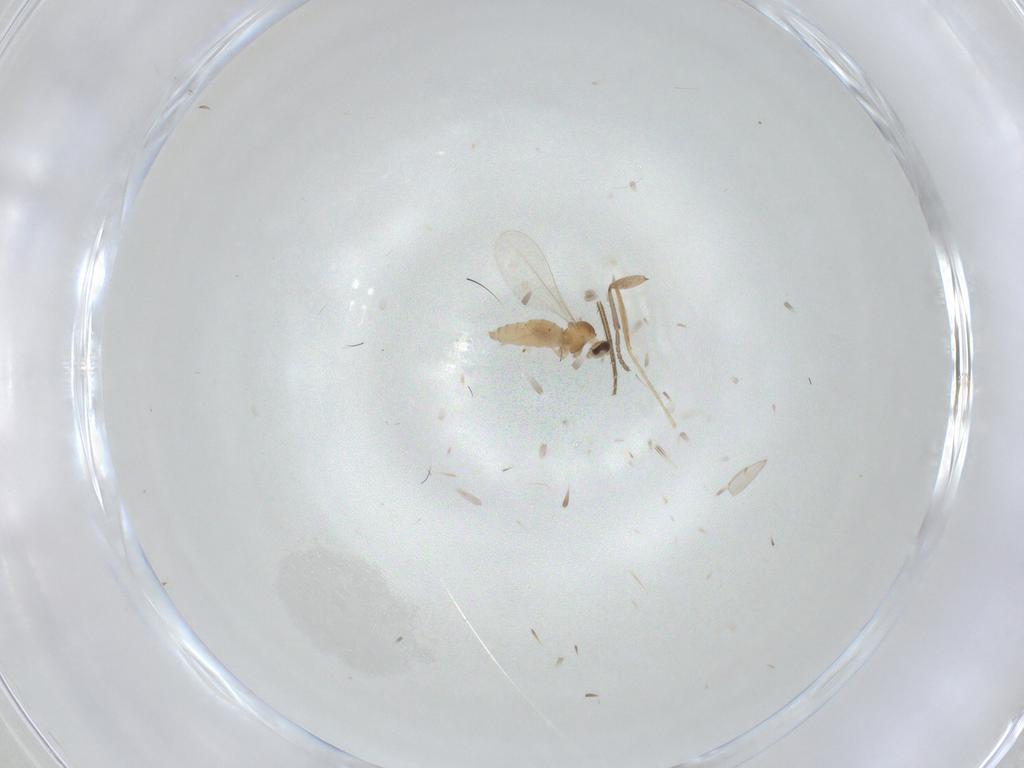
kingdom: Animalia
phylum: Arthropoda
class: Insecta
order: Diptera
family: Phoridae
